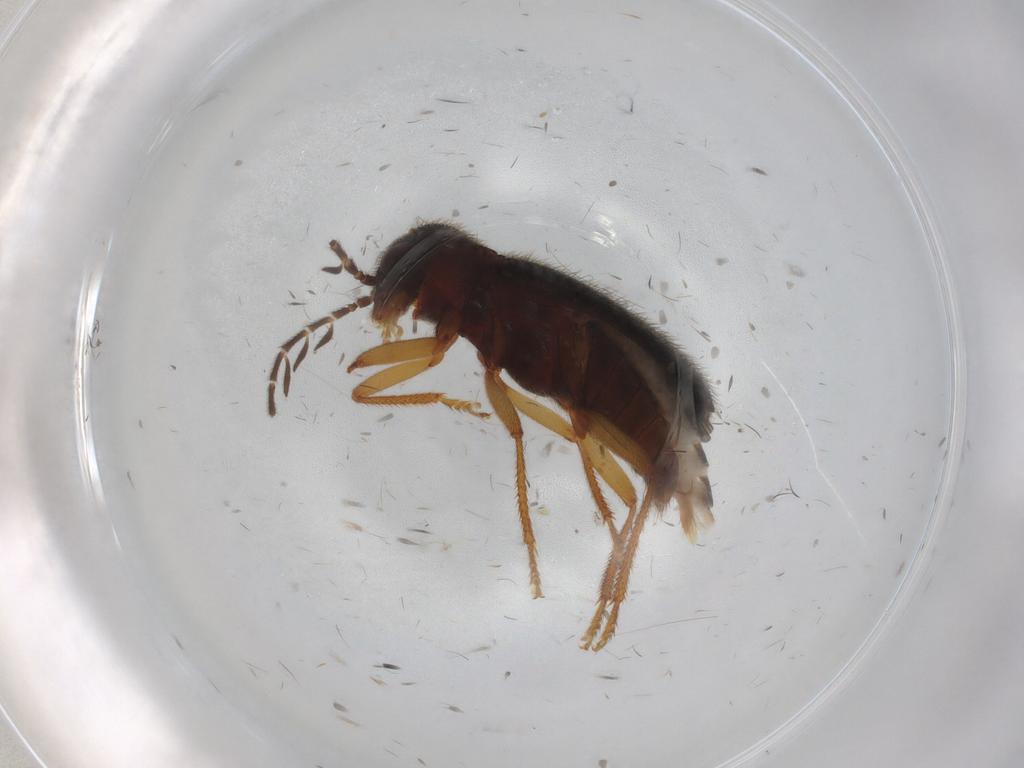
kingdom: Animalia
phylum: Arthropoda
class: Insecta
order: Coleoptera
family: Endomychidae
